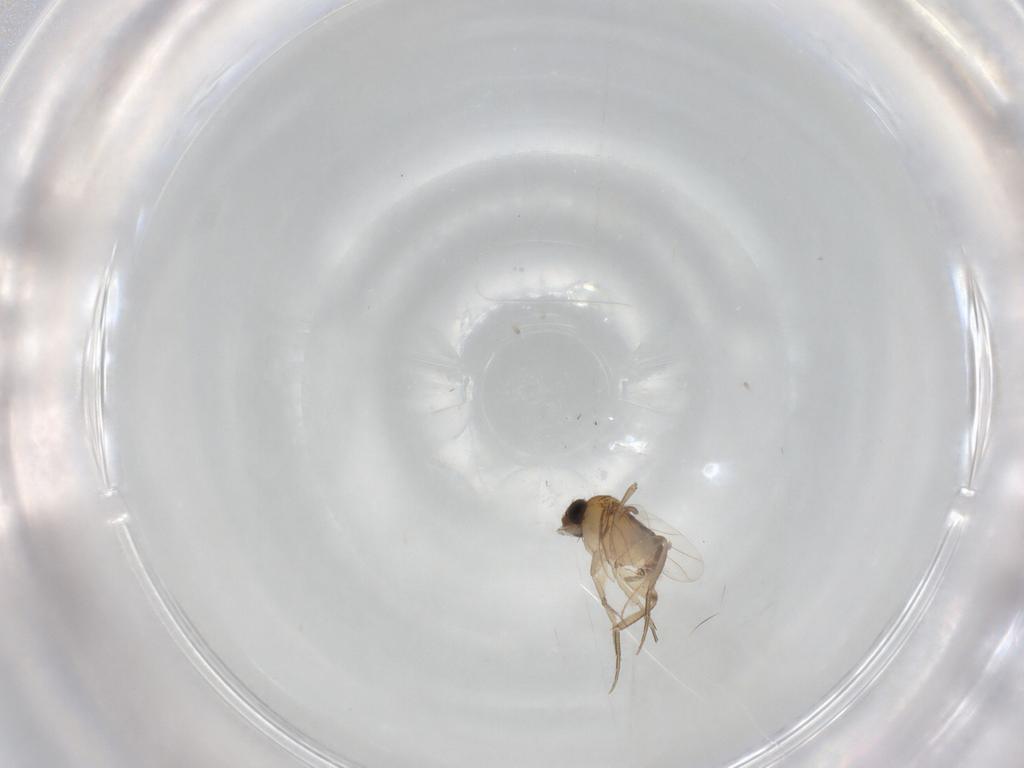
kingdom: Animalia
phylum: Arthropoda
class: Insecta
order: Diptera
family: Phoridae
